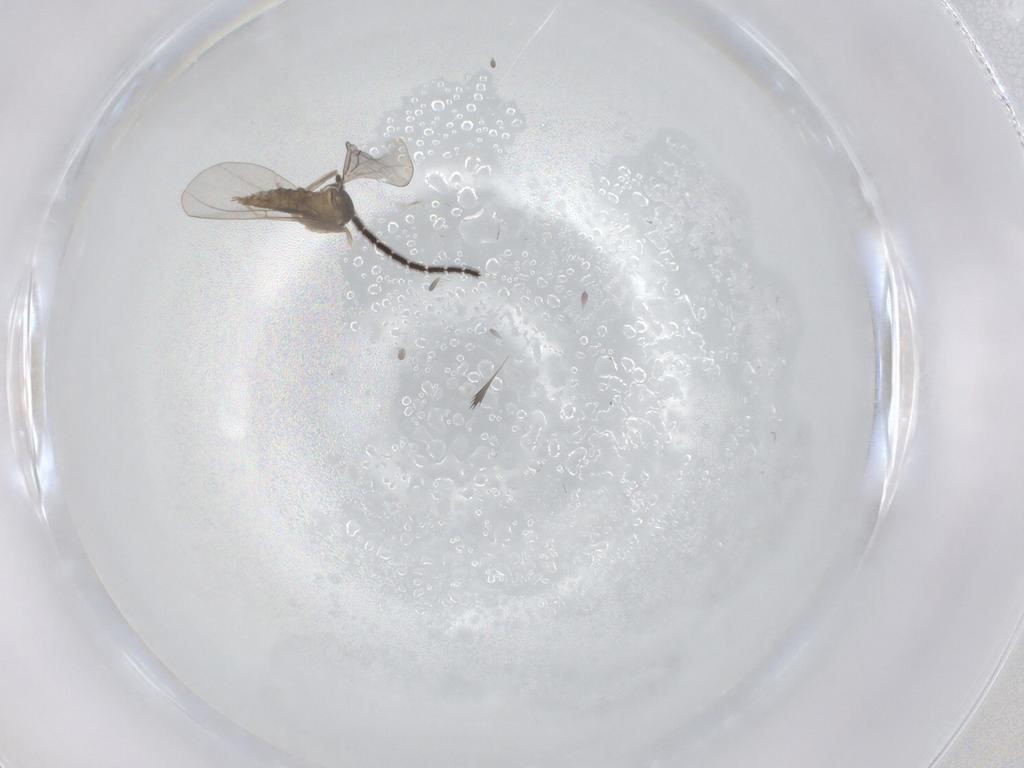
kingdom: Animalia
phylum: Arthropoda
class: Insecta
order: Diptera
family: Cecidomyiidae
